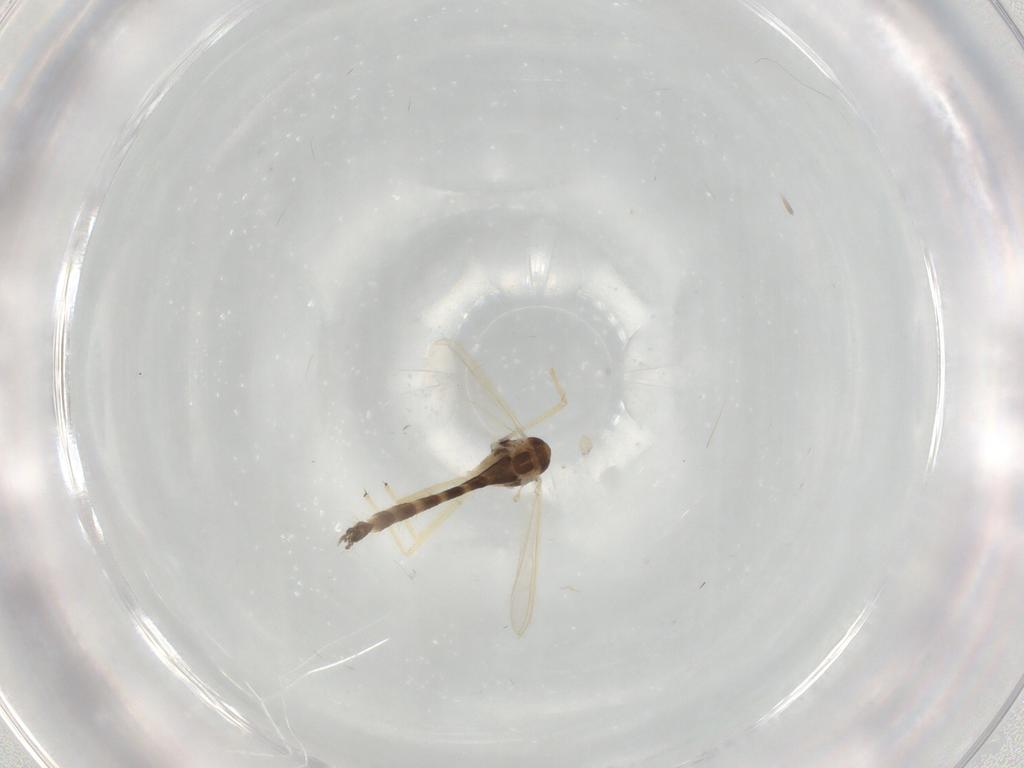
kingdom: Animalia
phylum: Arthropoda
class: Insecta
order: Diptera
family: Chironomidae
